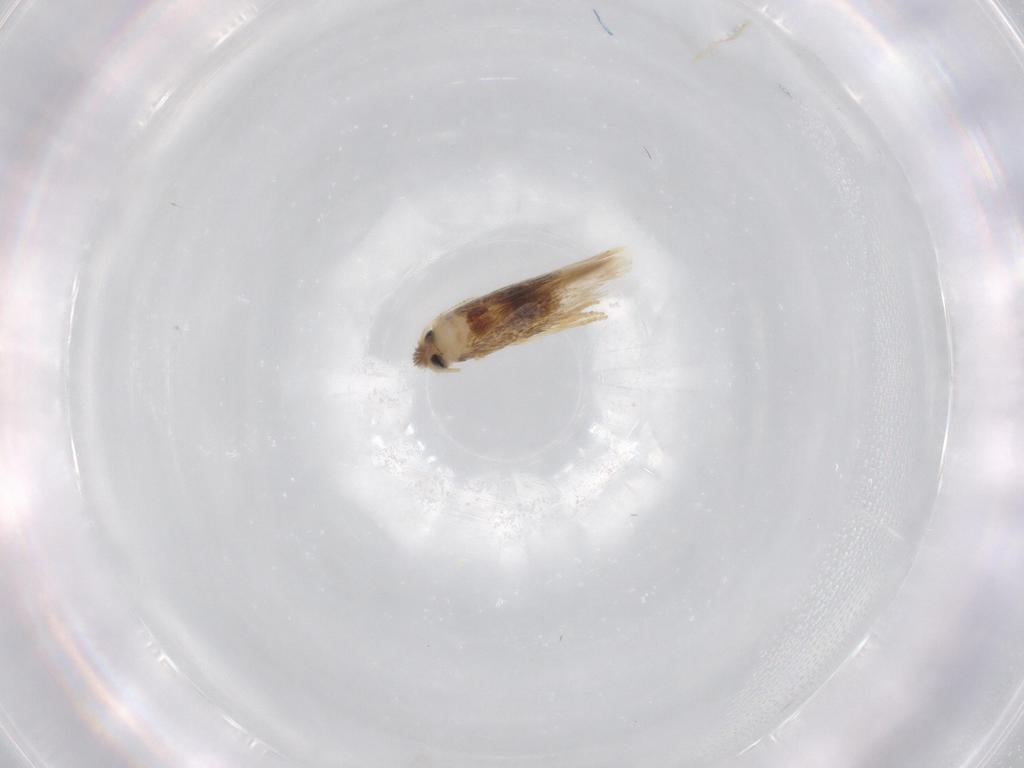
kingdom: Animalia
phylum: Arthropoda
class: Insecta
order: Lepidoptera
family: Nepticulidae
